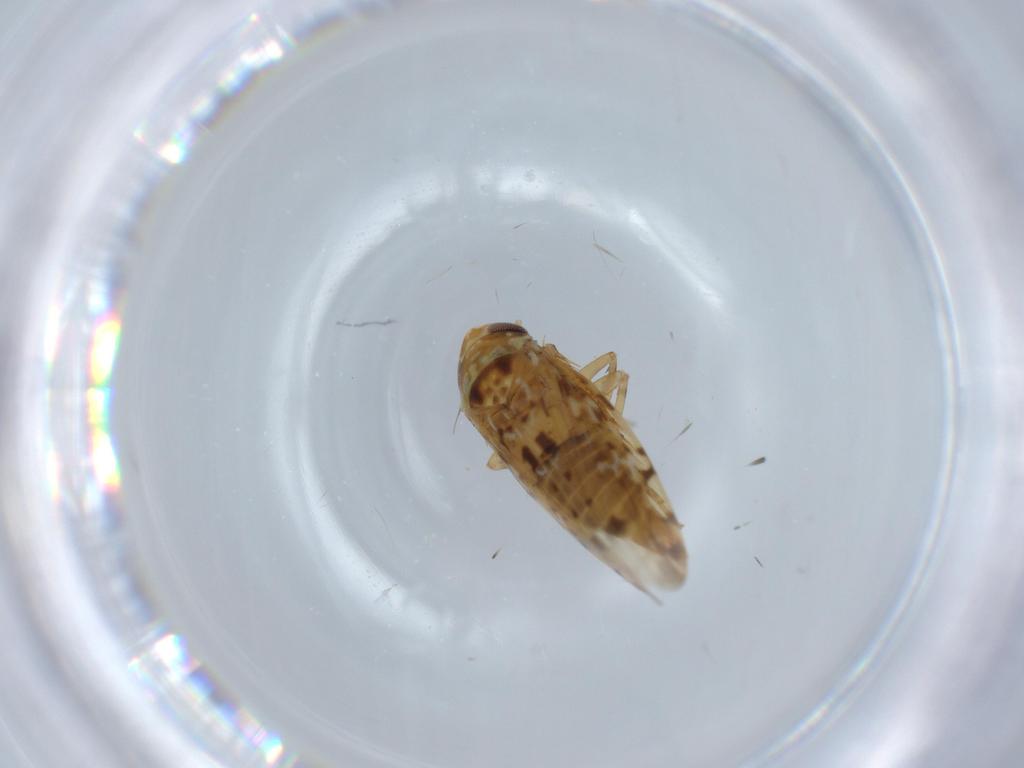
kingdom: Animalia
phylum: Arthropoda
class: Insecta
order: Hemiptera
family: Cicadellidae
